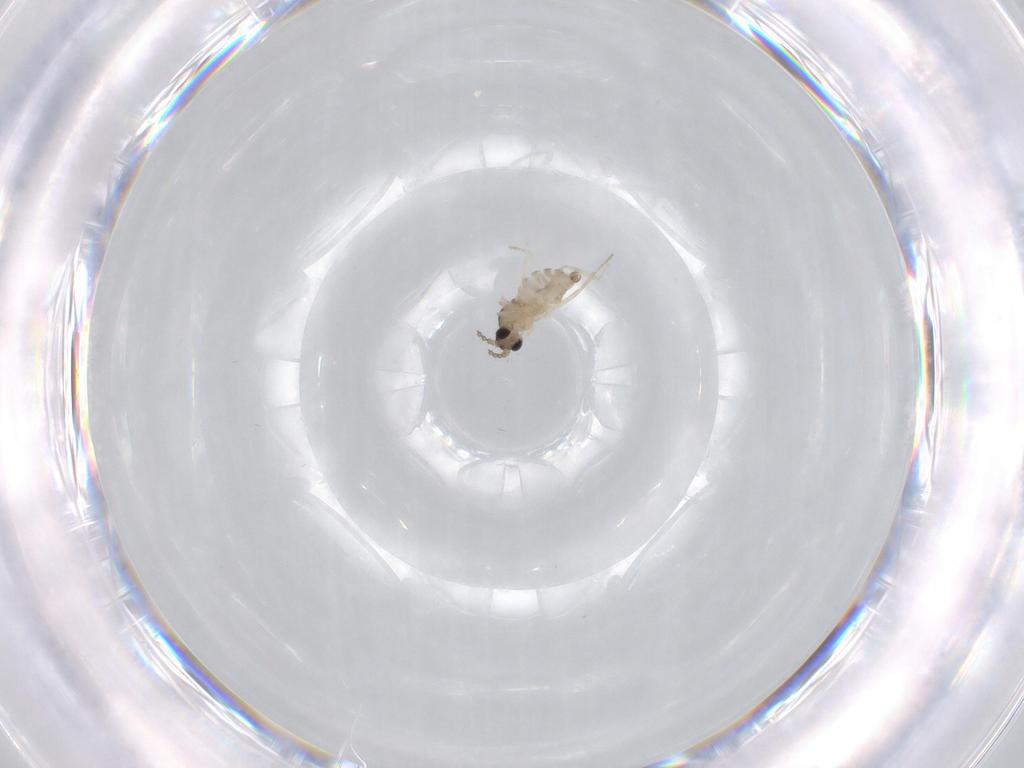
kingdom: Animalia
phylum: Arthropoda
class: Insecta
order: Diptera
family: Cecidomyiidae
